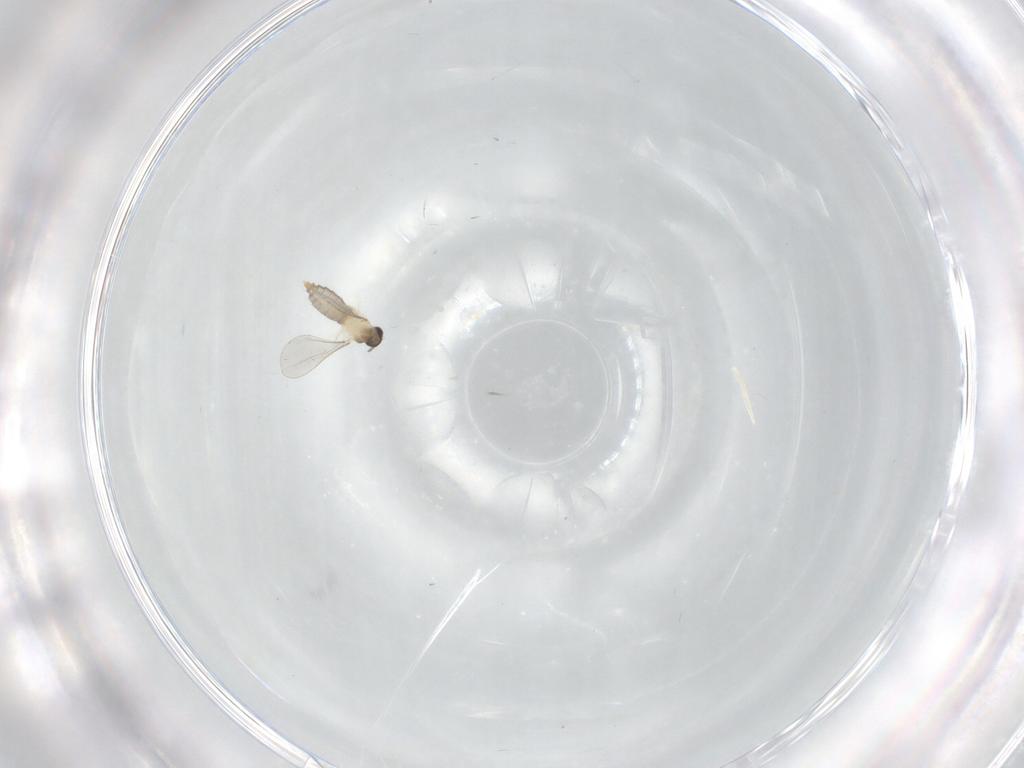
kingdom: Animalia
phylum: Arthropoda
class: Insecta
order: Diptera
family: Cecidomyiidae
